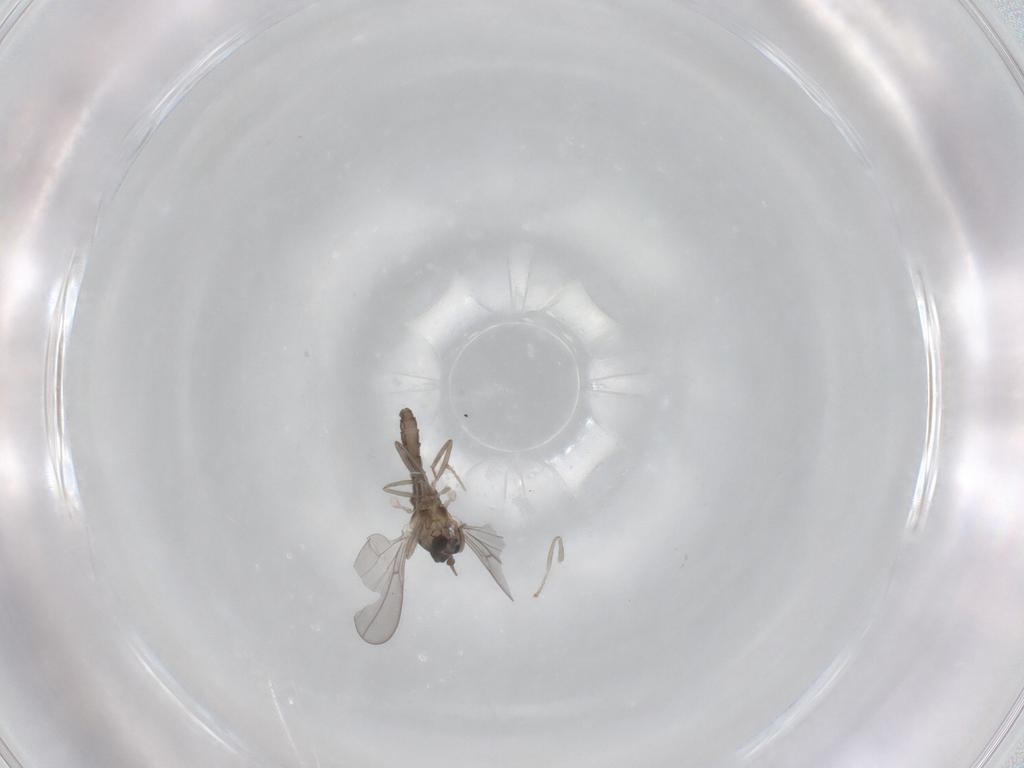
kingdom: Animalia
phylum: Arthropoda
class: Insecta
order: Diptera
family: Cecidomyiidae
